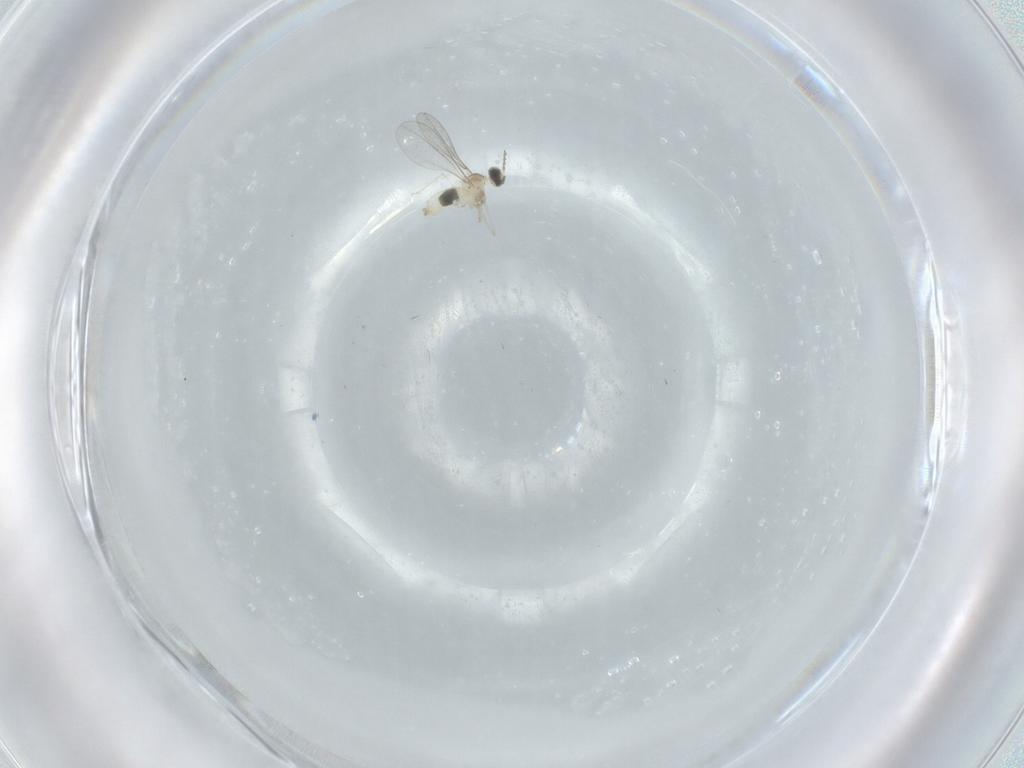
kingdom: Animalia
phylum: Arthropoda
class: Insecta
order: Diptera
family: Cecidomyiidae
